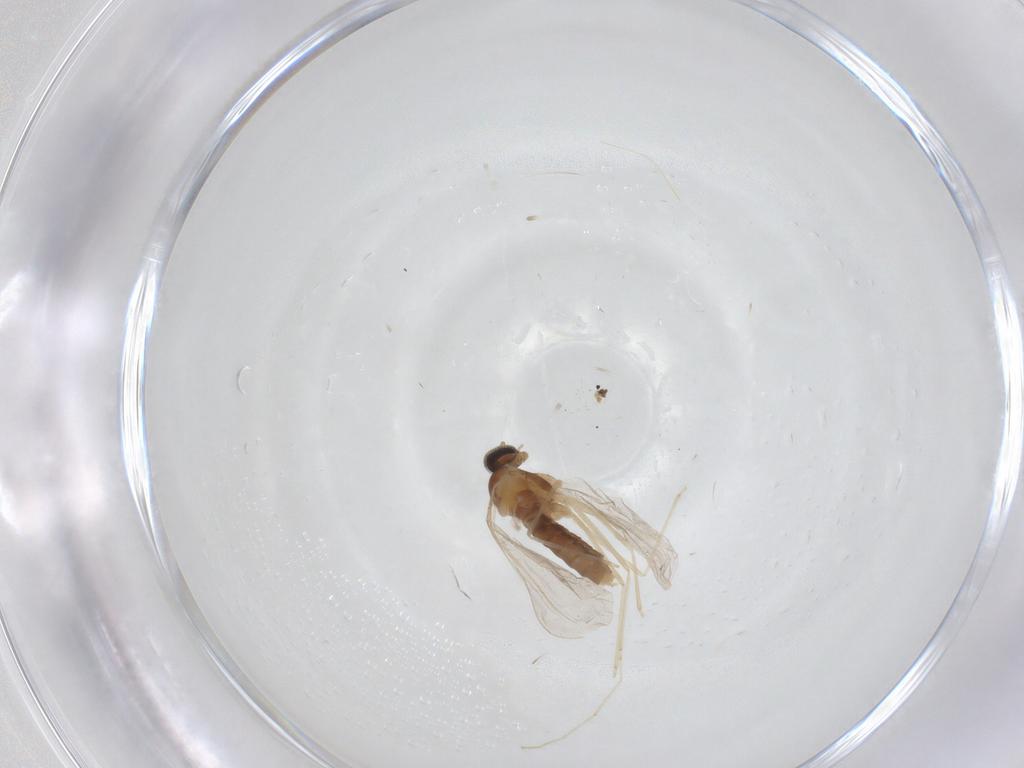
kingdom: Animalia
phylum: Arthropoda
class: Insecta
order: Diptera
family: Cecidomyiidae
